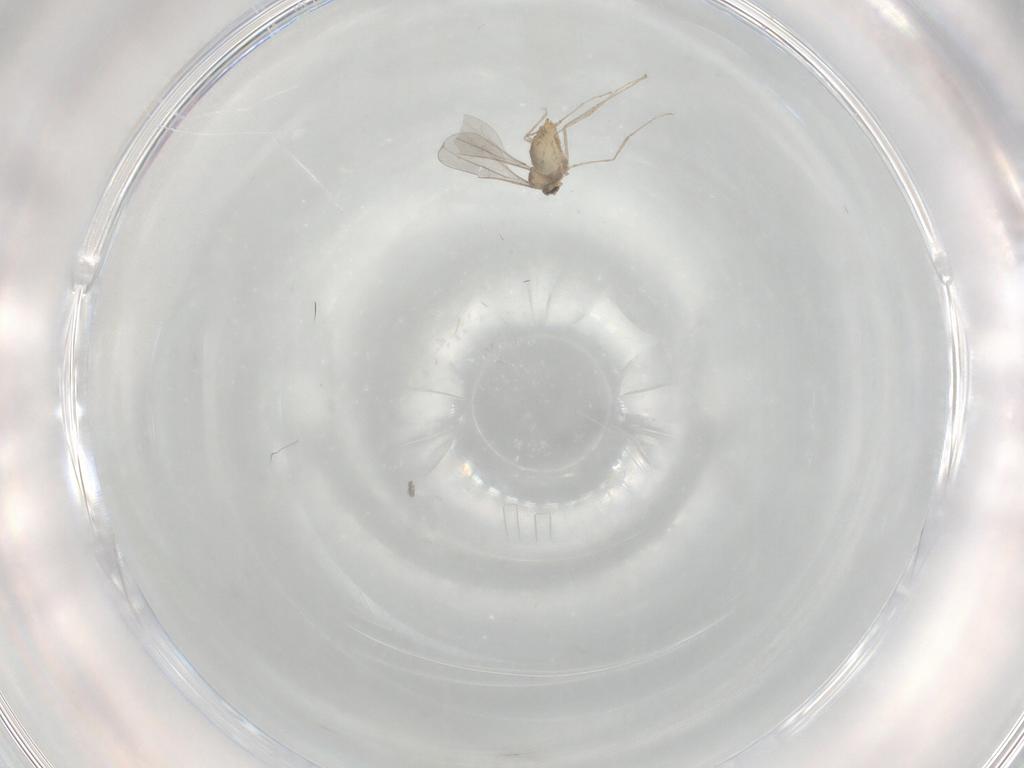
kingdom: Animalia
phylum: Arthropoda
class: Insecta
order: Diptera
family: Cecidomyiidae
